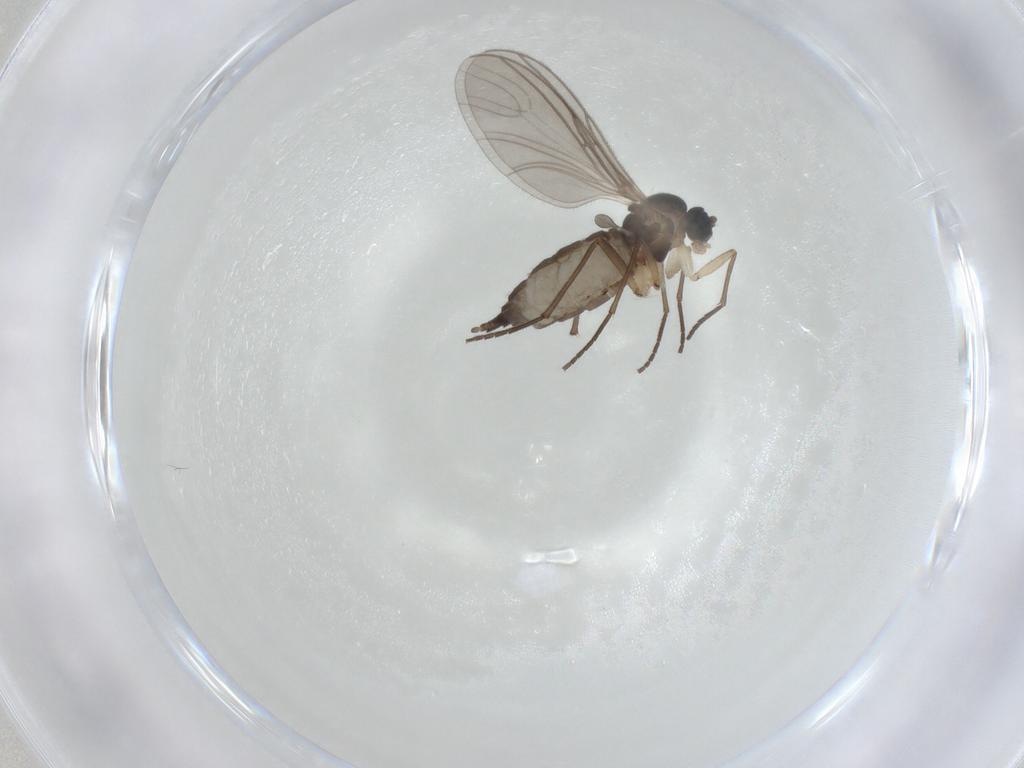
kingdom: Animalia
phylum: Arthropoda
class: Insecta
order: Diptera
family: Sciaridae
